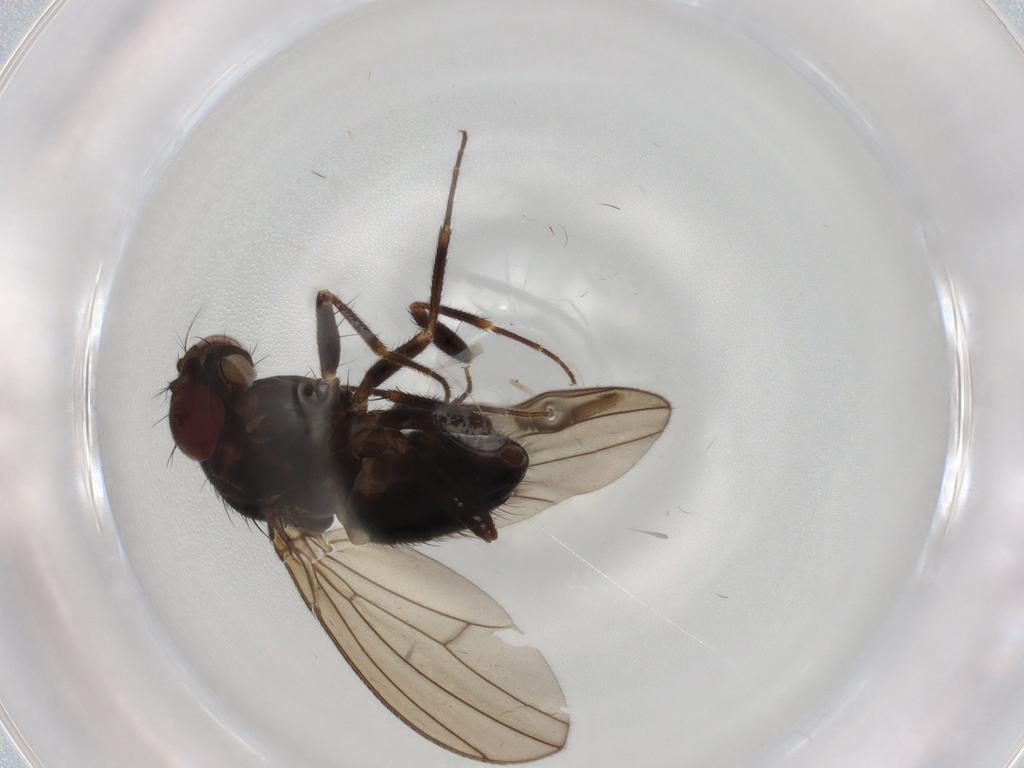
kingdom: Animalia
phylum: Arthropoda
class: Insecta
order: Diptera
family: Drosophilidae
